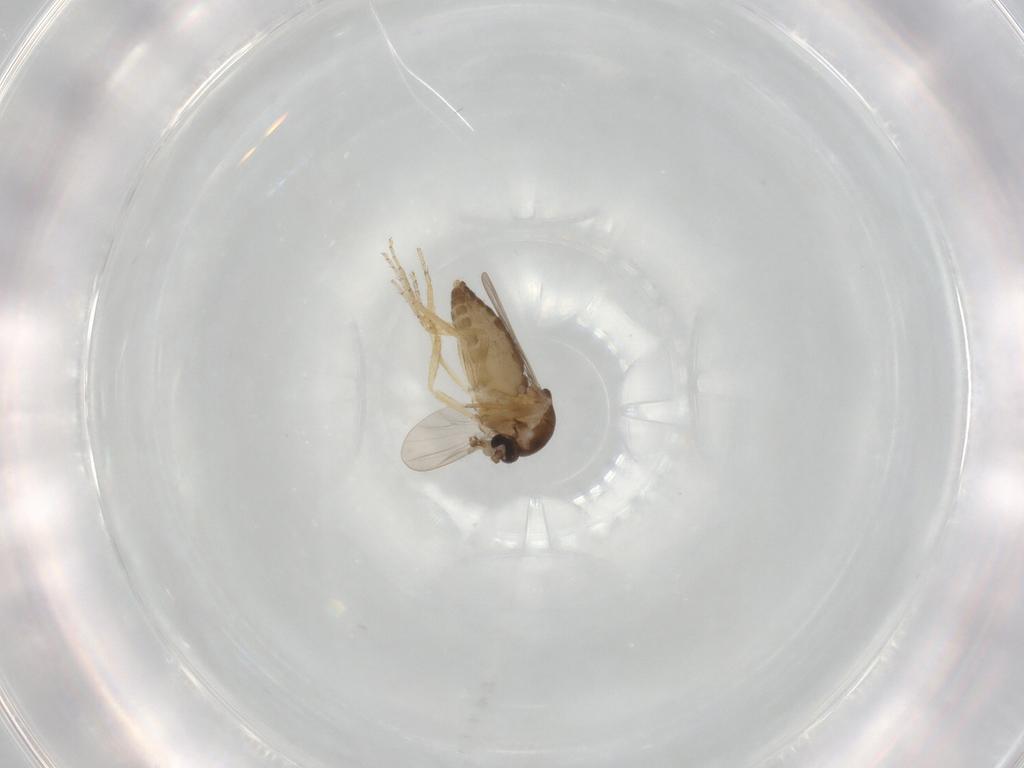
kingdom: Animalia
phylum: Arthropoda
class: Insecta
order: Diptera
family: Ceratopogonidae
